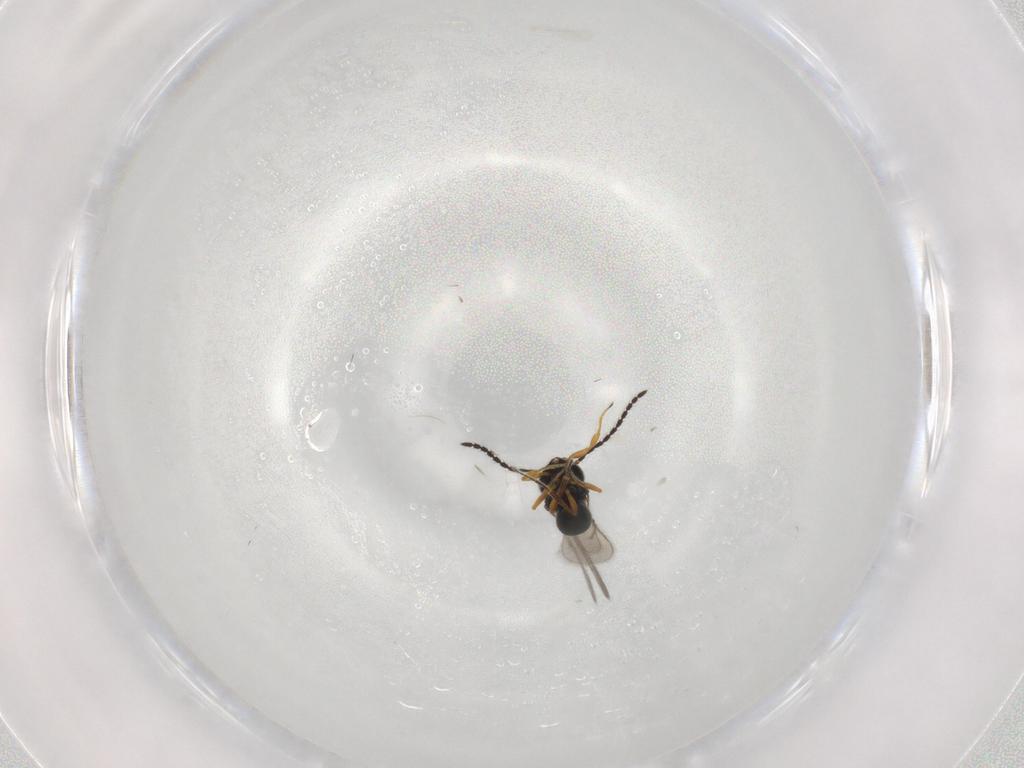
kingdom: Animalia
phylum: Arthropoda
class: Insecta
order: Hymenoptera
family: Scelionidae
